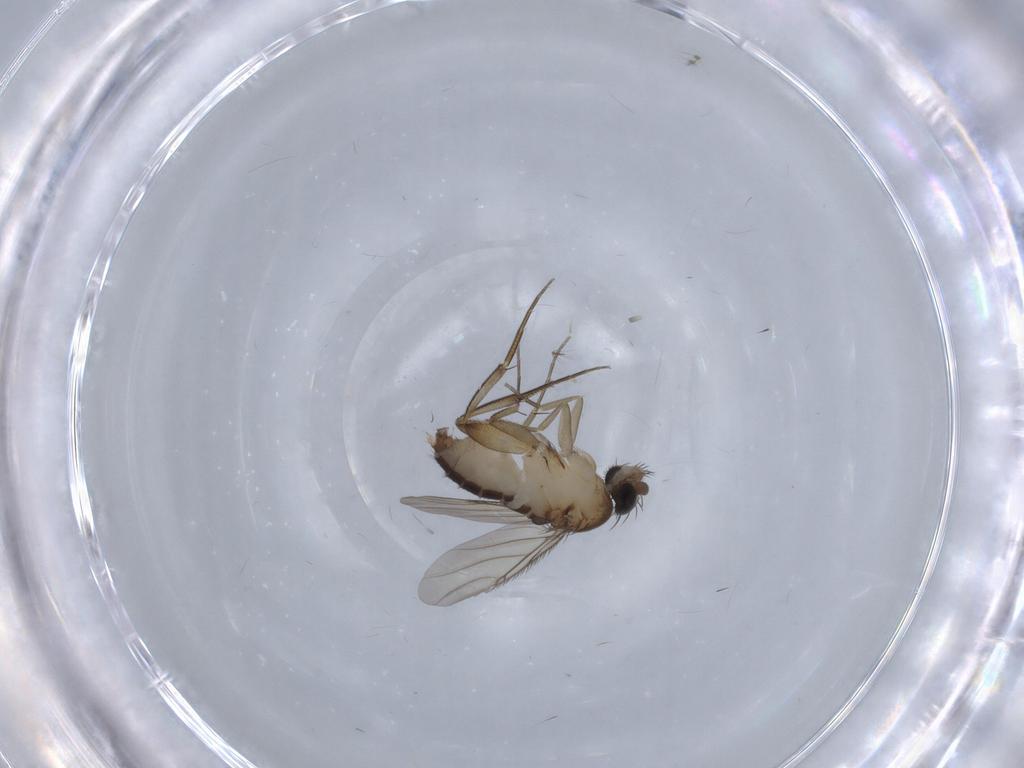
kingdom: Animalia
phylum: Arthropoda
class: Insecta
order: Diptera
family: Phoridae
